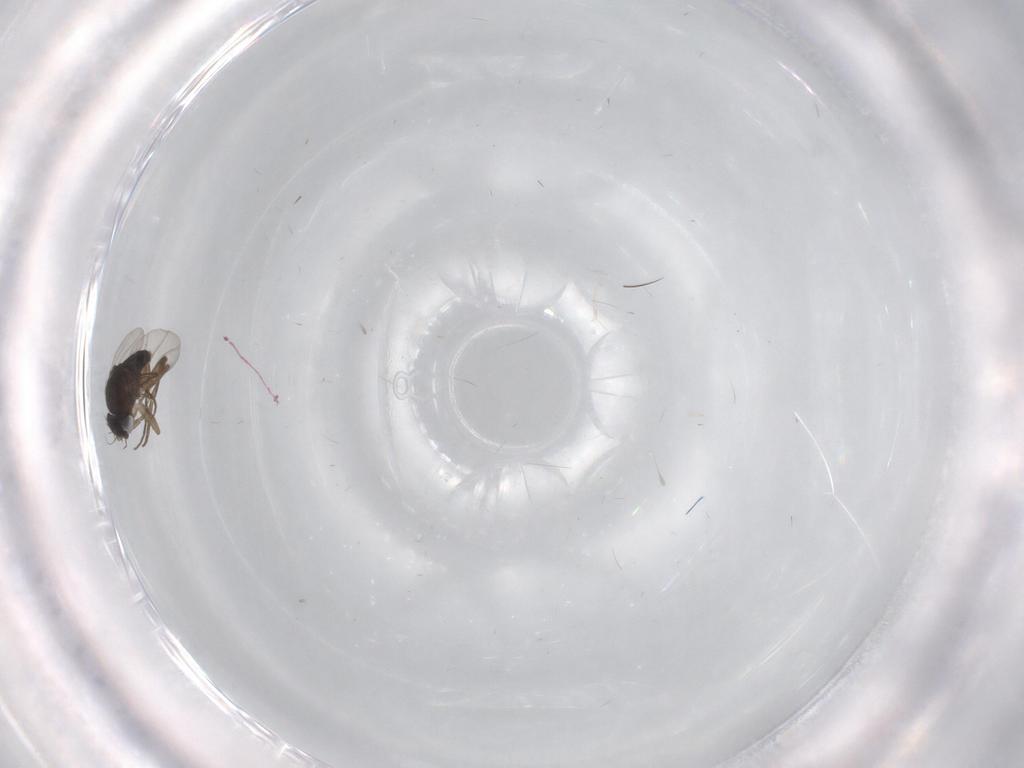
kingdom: Animalia
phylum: Arthropoda
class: Insecta
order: Diptera
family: Phoridae
